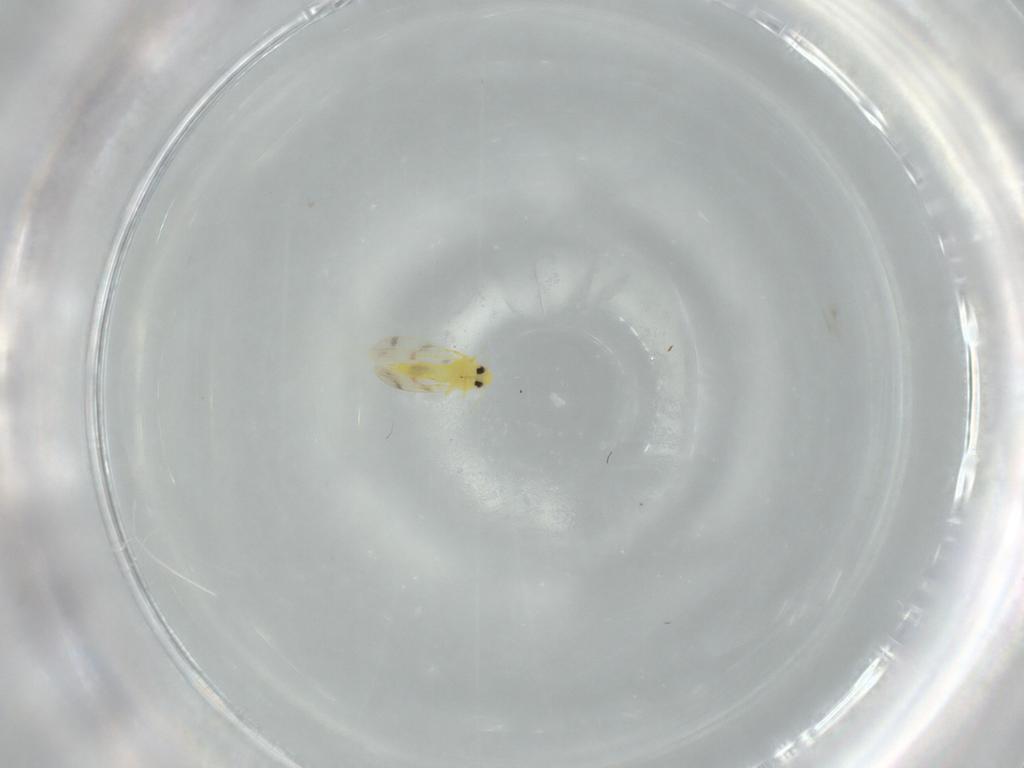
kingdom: Animalia
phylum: Arthropoda
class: Insecta
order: Hemiptera
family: Aleyrodidae
